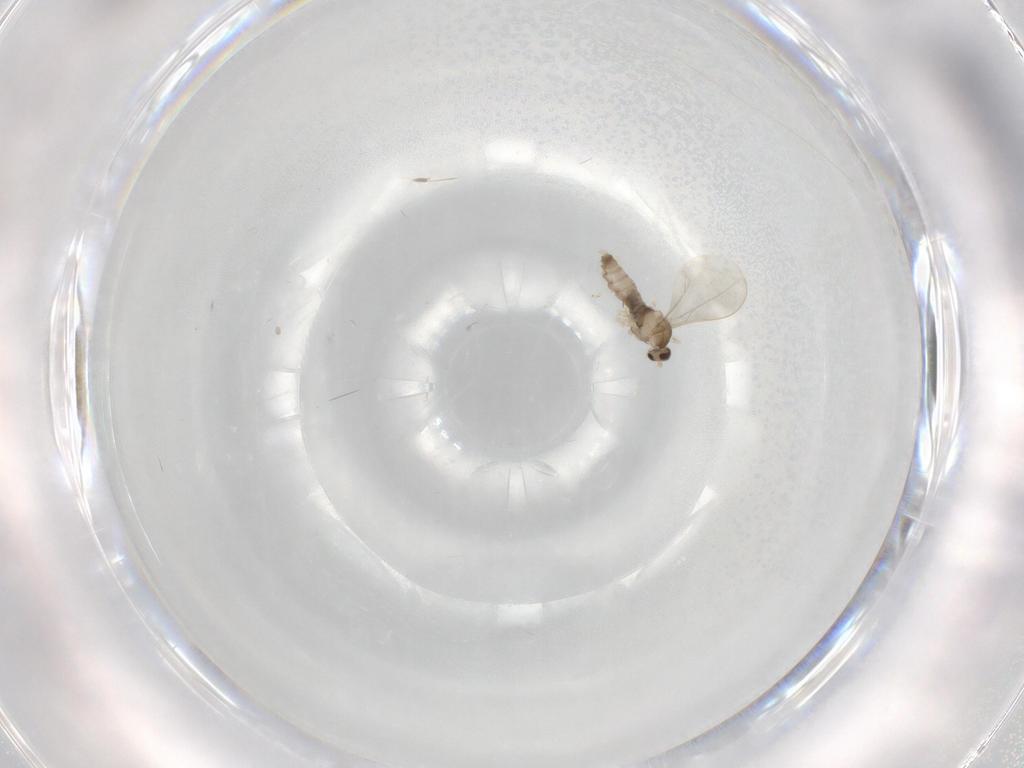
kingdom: Animalia
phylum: Arthropoda
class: Insecta
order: Diptera
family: Cecidomyiidae
